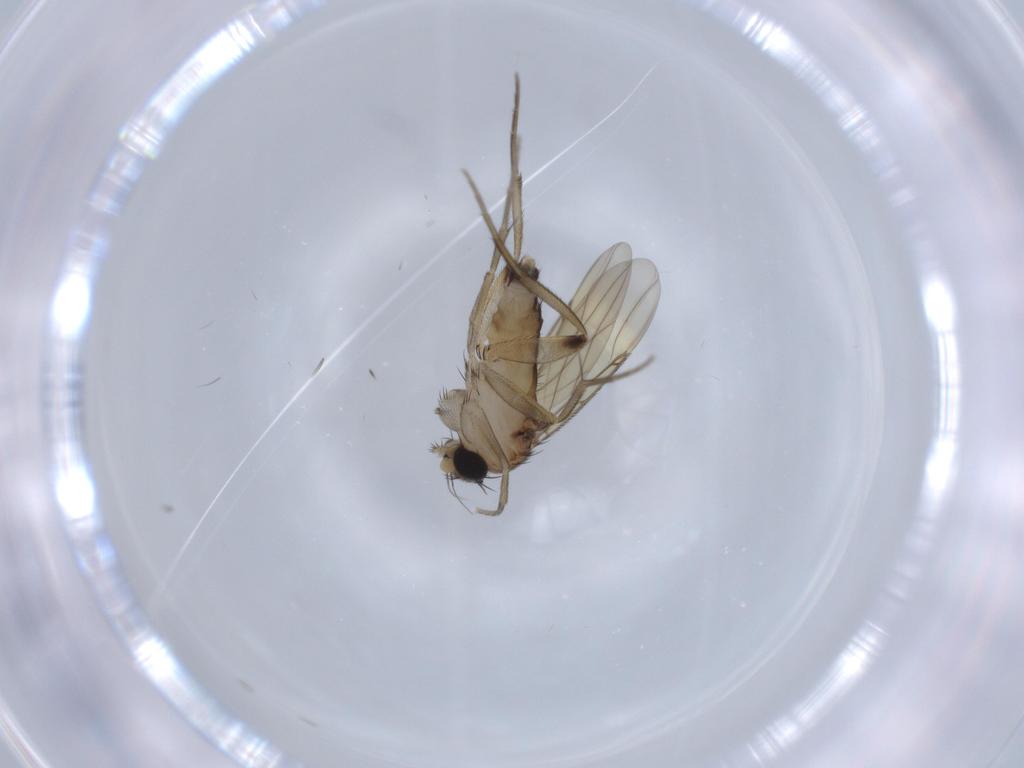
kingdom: Animalia
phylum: Arthropoda
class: Insecta
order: Diptera
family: Phoridae
